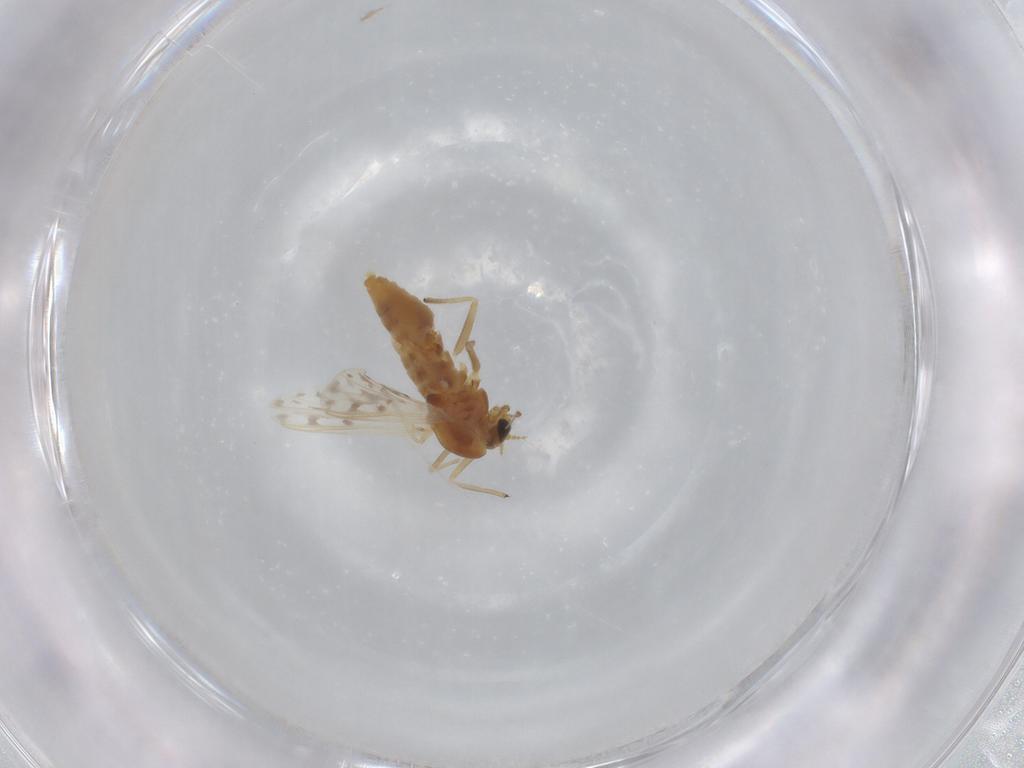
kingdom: Animalia
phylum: Arthropoda
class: Insecta
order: Diptera
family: Chironomidae
